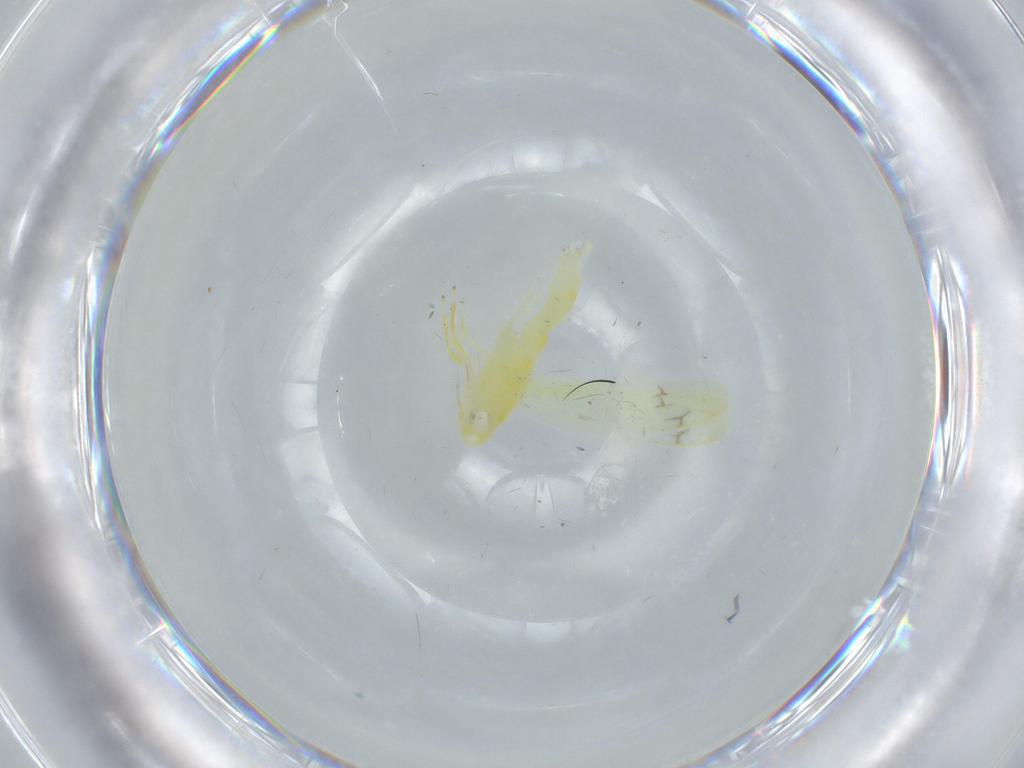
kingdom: Animalia
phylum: Arthropoda
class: Insecta
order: Hemiptera
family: Cicadellidae
